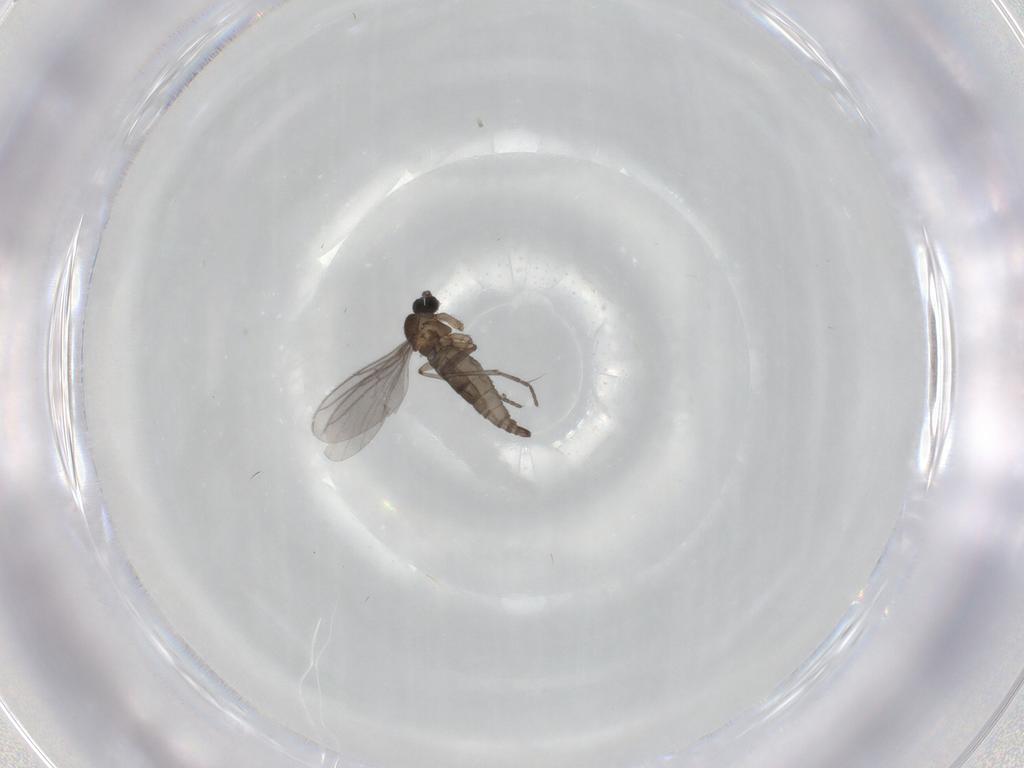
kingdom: Animalia
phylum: Arthropoda
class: Insecta
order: Diptera
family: Sciaridae
